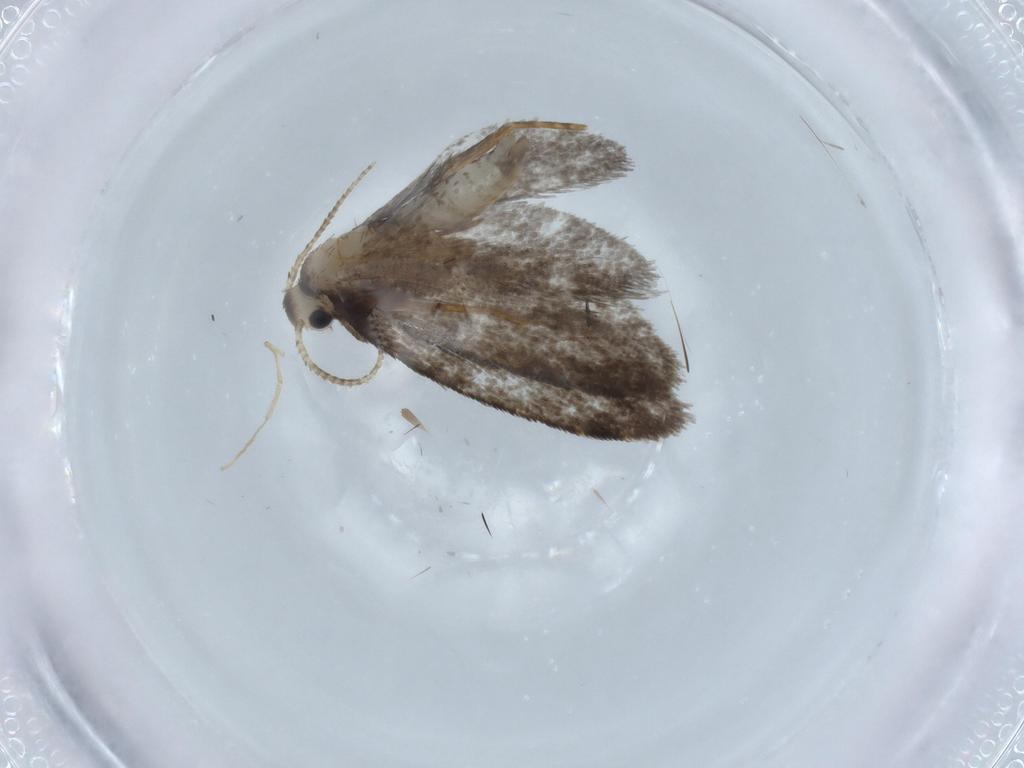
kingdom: Animalia
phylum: Arthropoda
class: Insecta
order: Lepidoptera
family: Psychidae
